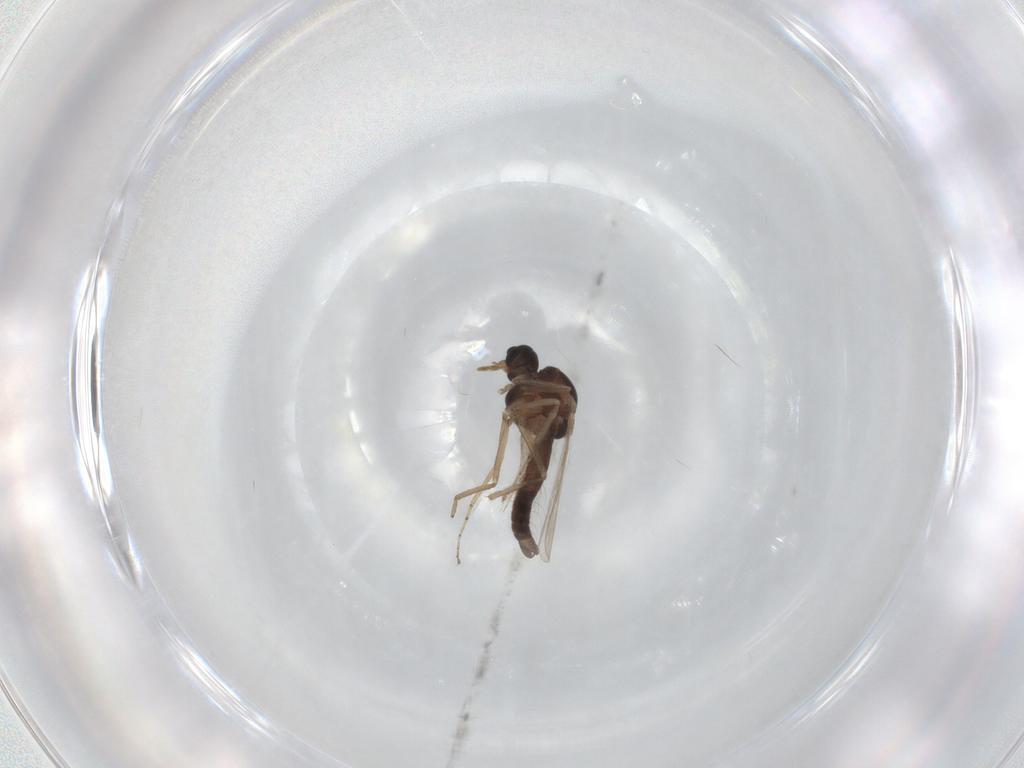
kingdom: Animalia
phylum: Arthropoda
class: Insecta
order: Diptera
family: Ceratopogonidae
